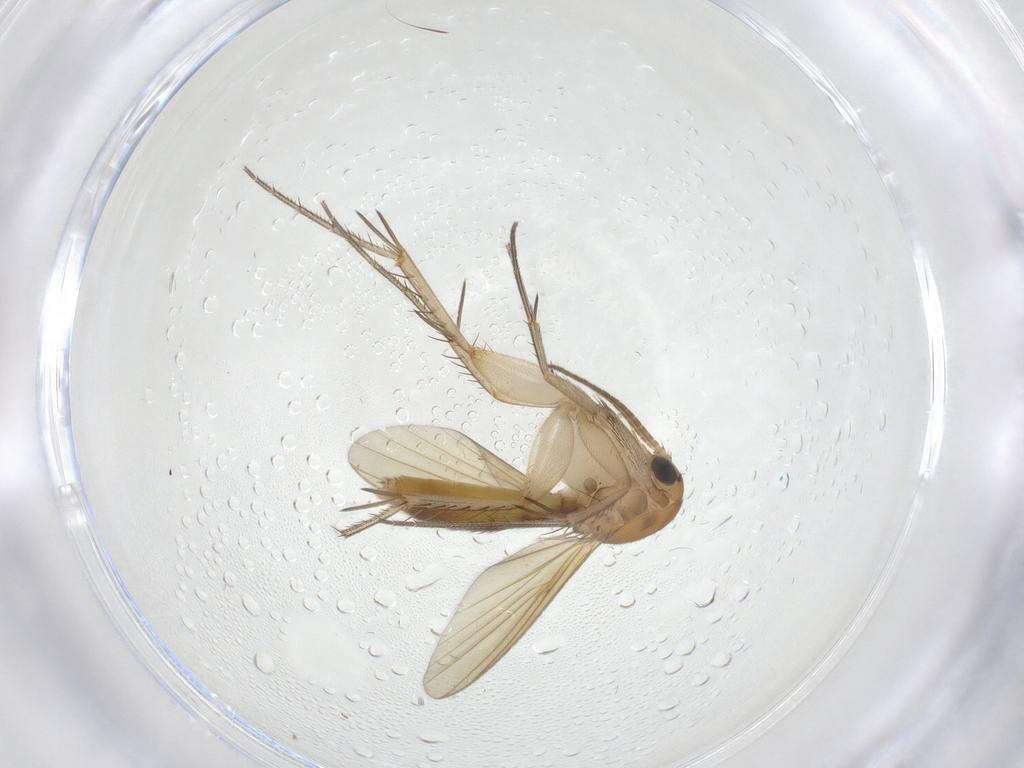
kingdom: Animalia
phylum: Arthropoda
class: Insecta
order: Diptera
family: Mycetophilidae
